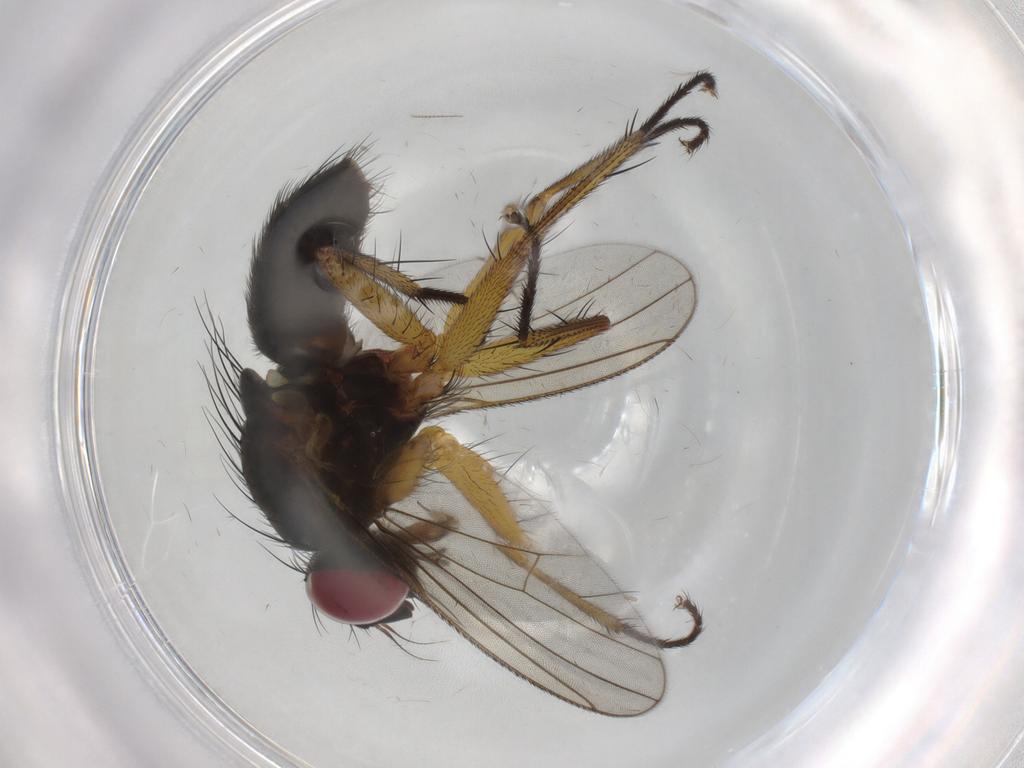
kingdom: Animalia
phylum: Arthropoda
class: Insecta
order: Diptera
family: Muscidae
